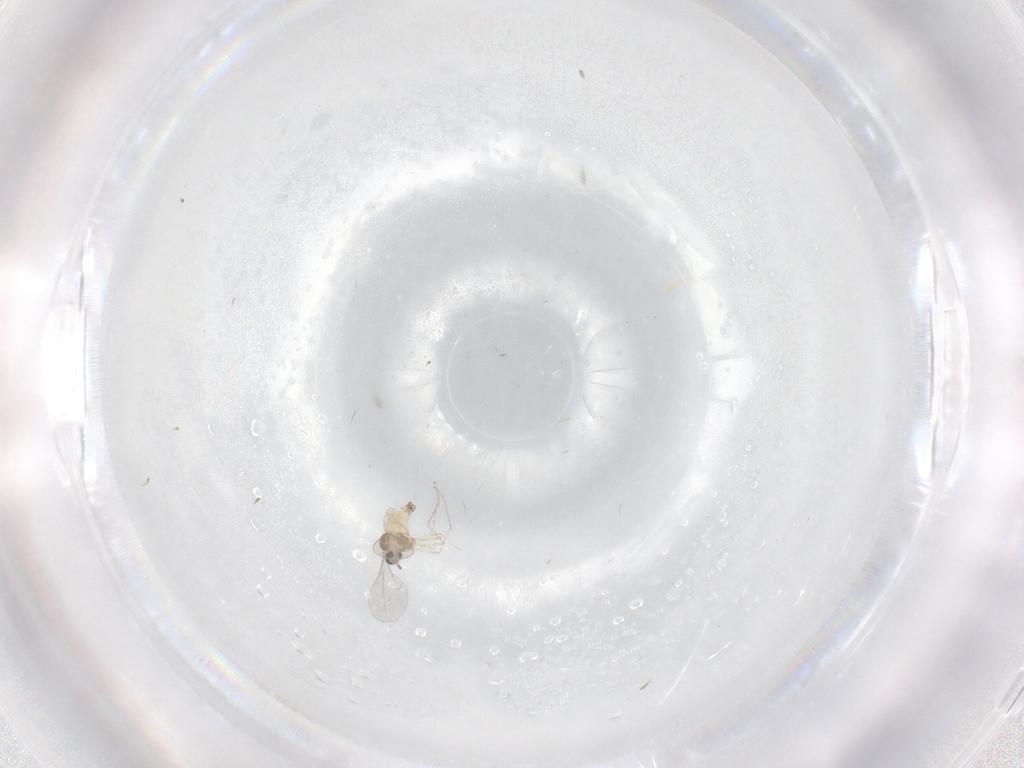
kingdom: Animalia
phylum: Arthropoda
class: Insecta
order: Diptera
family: Cecidomyiidae
